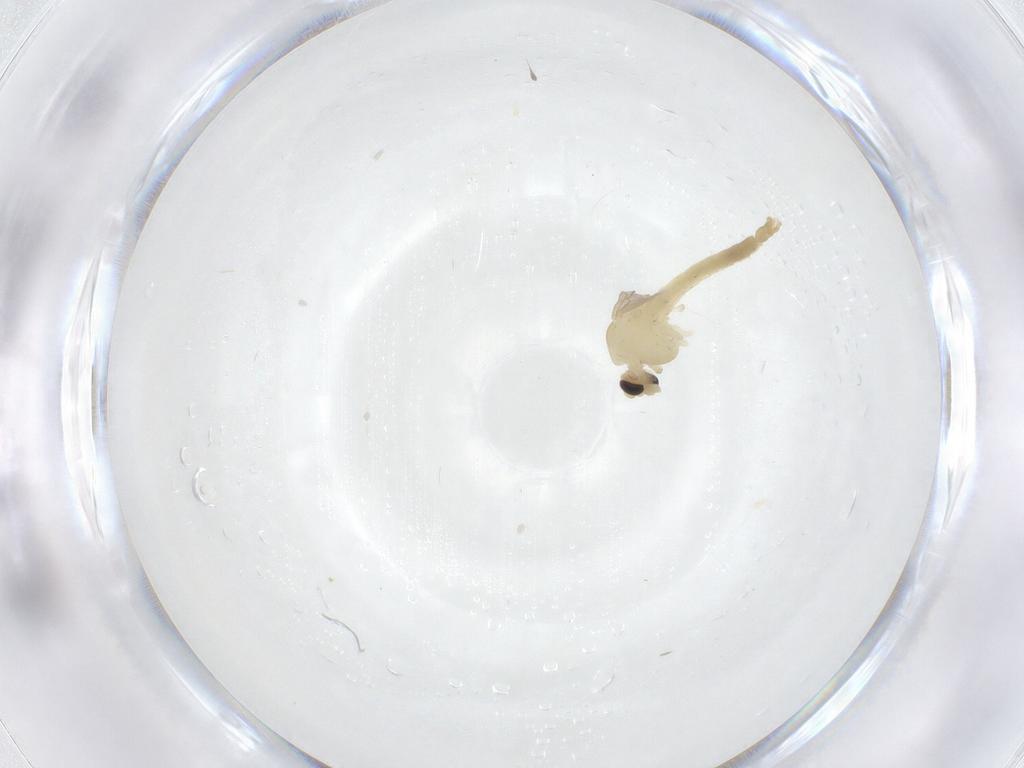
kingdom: Animalia
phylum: Arthropoda
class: Insecta
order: Diptera
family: Chironomidae
